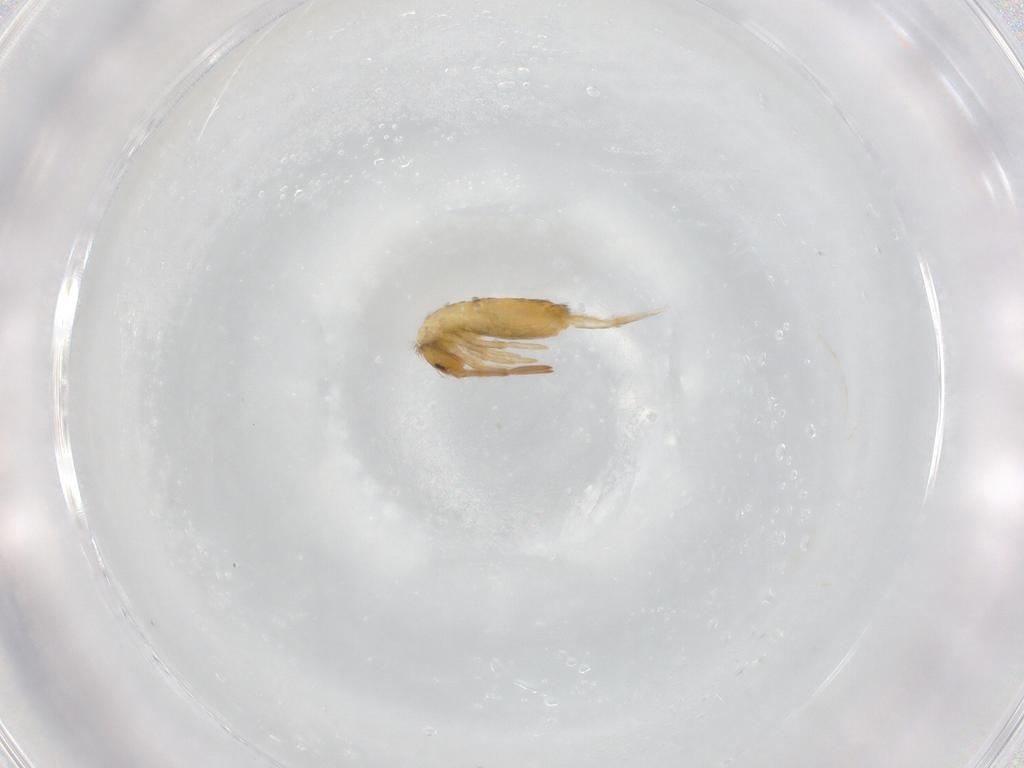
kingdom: Animalia
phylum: Arthropoda
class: Collembola
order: Entomobryomorpha
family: Entomobryidae
